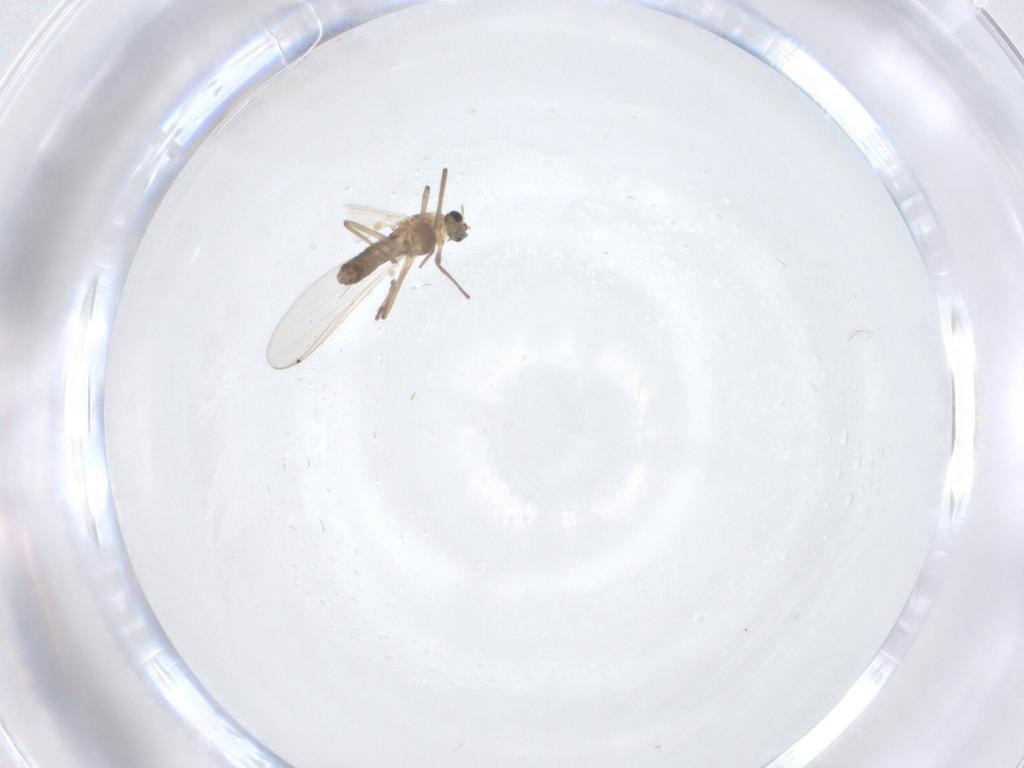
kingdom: Animalia
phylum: Arthropoda
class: Insecta
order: Diptera
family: Chironomidae
